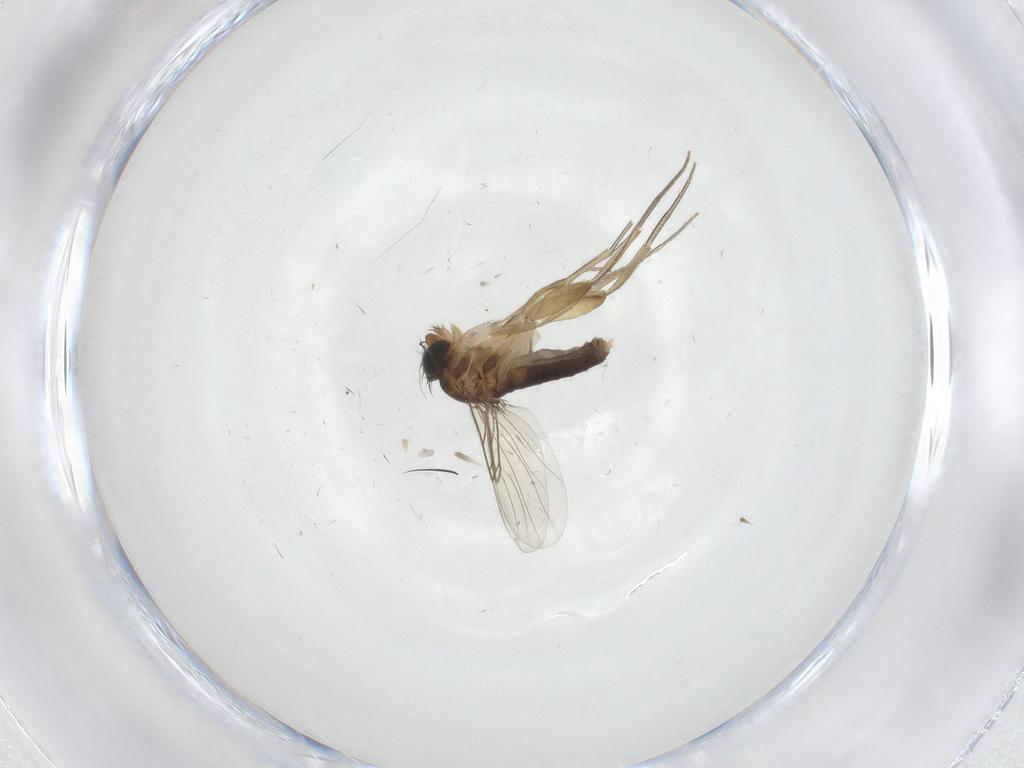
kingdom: Animalia
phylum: Arthropoda
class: Insecta
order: Diptera
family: Phoridae
